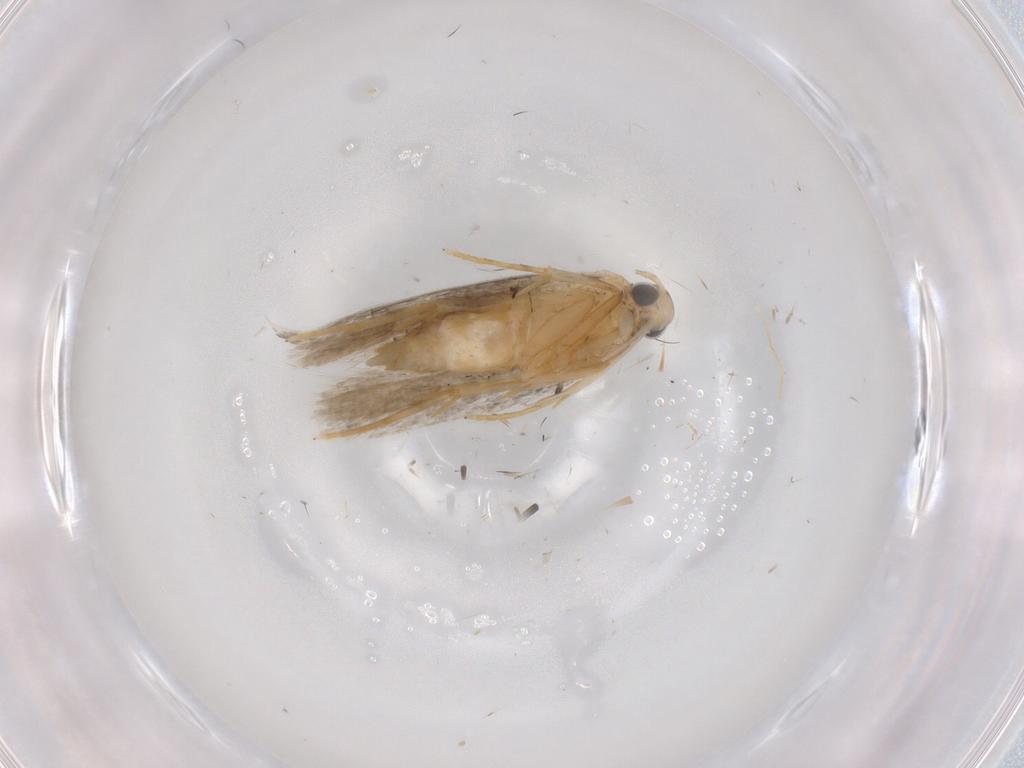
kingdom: Animalia
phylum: Arthropoda
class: Insecta
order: Lepidoptera
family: Autostichidae
